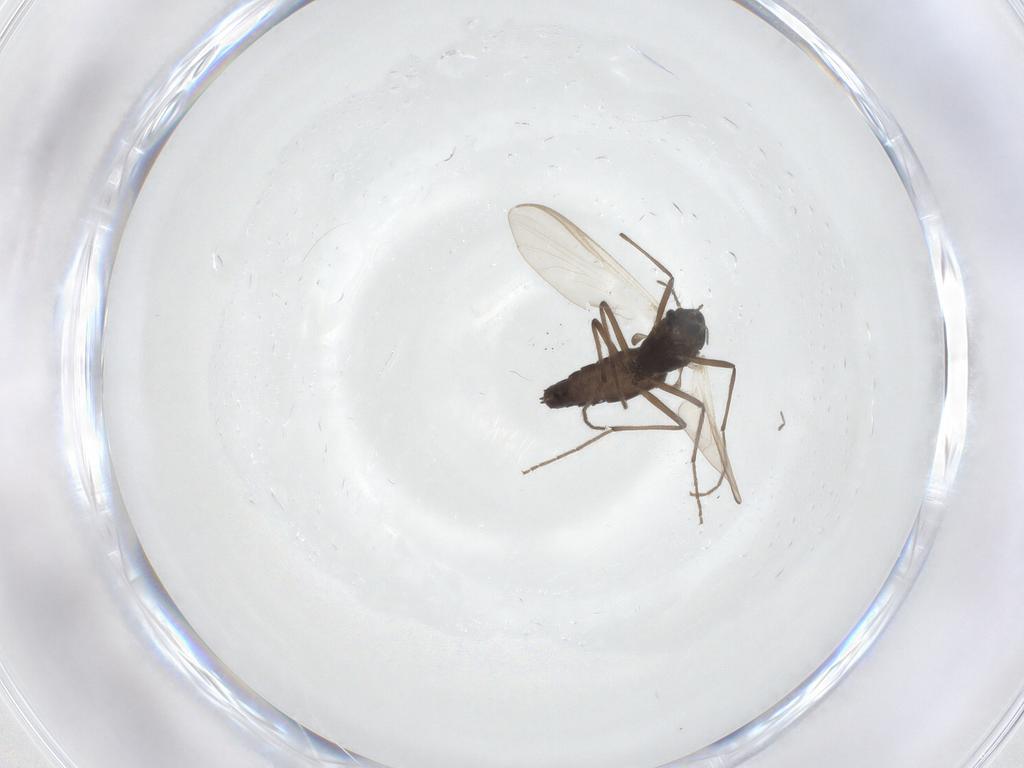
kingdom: Animalia
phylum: Arthropoda
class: Insecta
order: Diptera
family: Chironomidae
